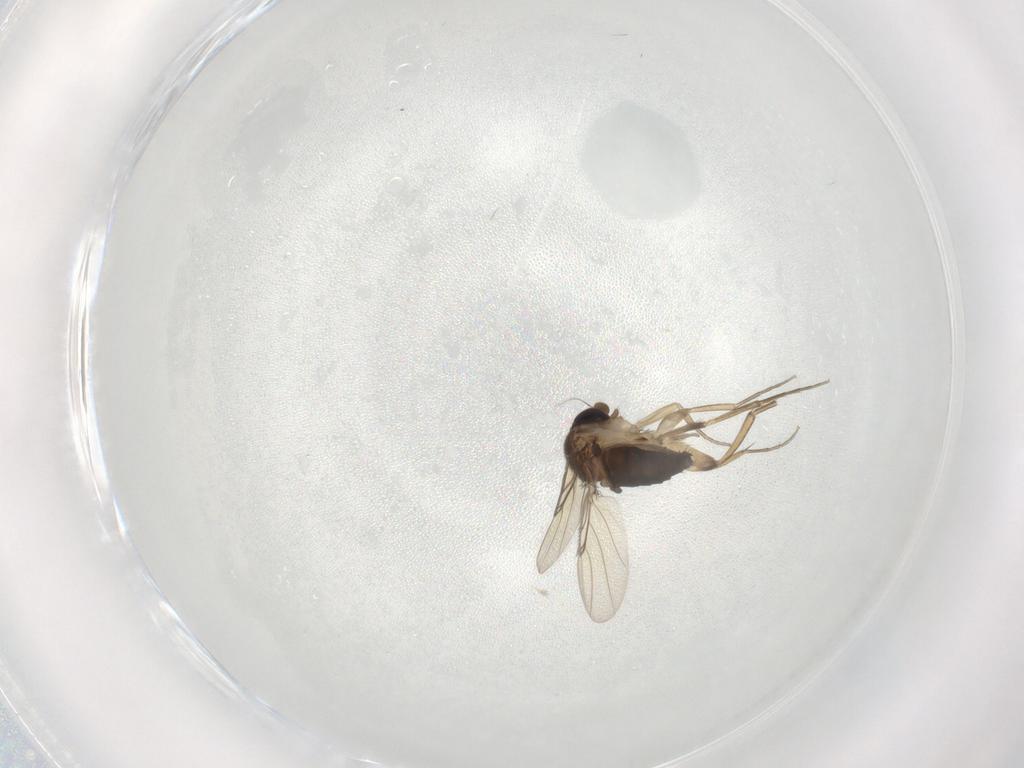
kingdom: Animalia
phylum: Arthropoda
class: Insecta
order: Diptera
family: Phoridae
